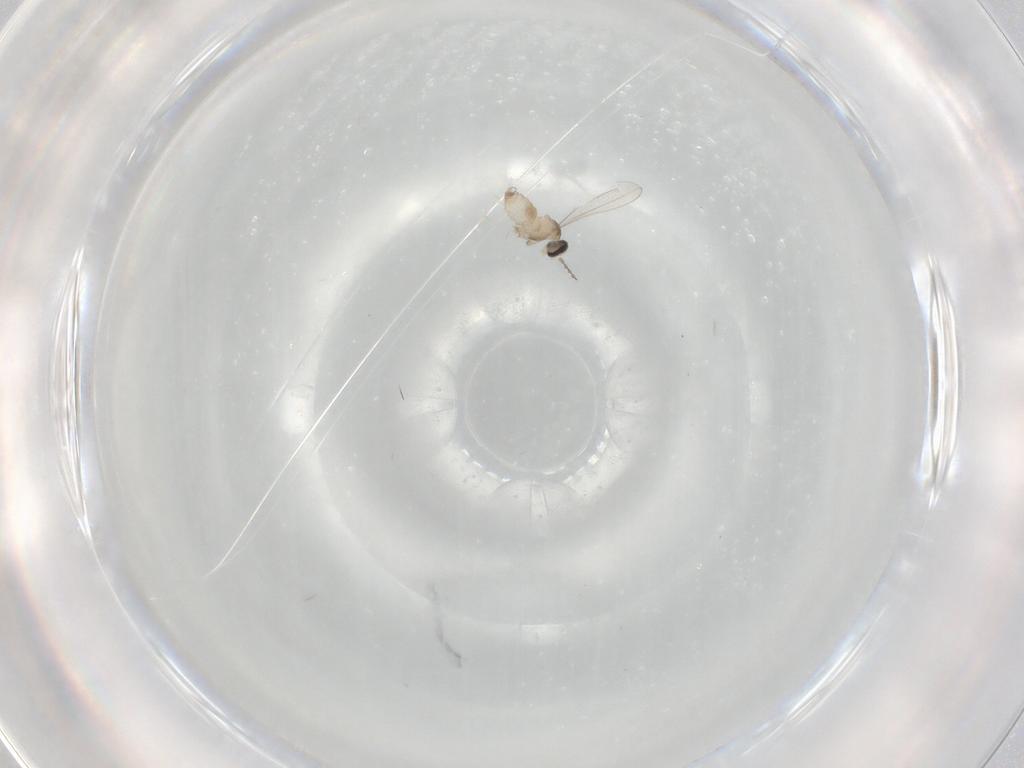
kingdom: Animalia
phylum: Arthropoda
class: Insecta
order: Diptera
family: Cecidomyiidae
